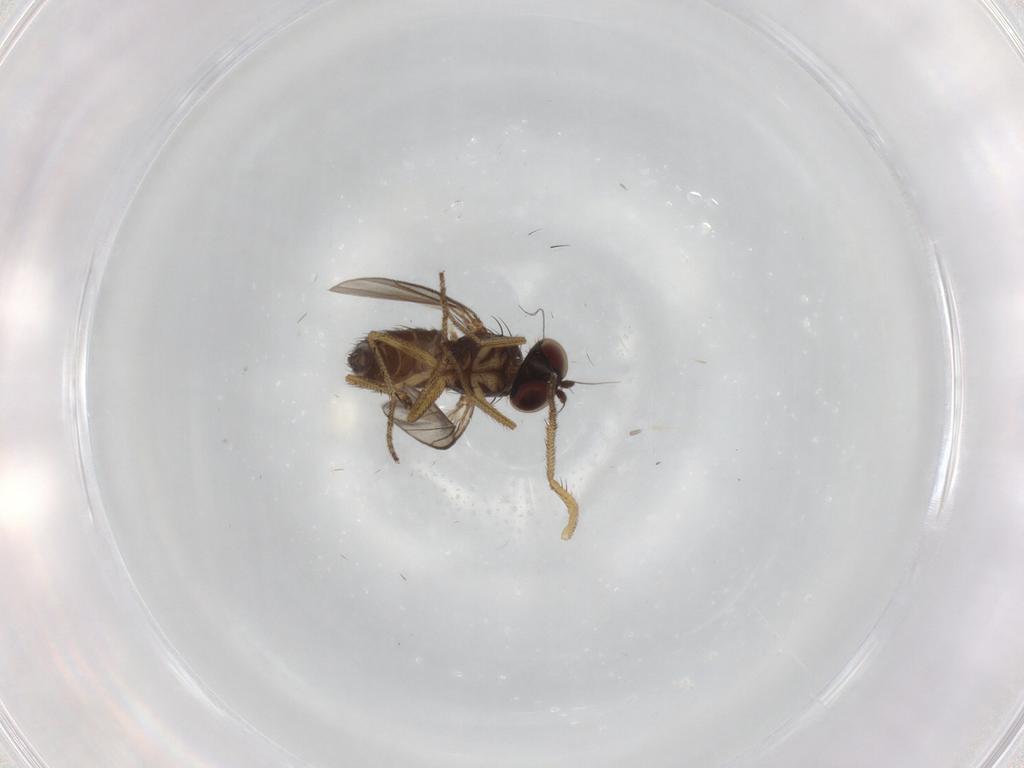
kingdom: Animalia
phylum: Arthropoda
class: Insecta
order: Diptera
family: Dolichopodidae
